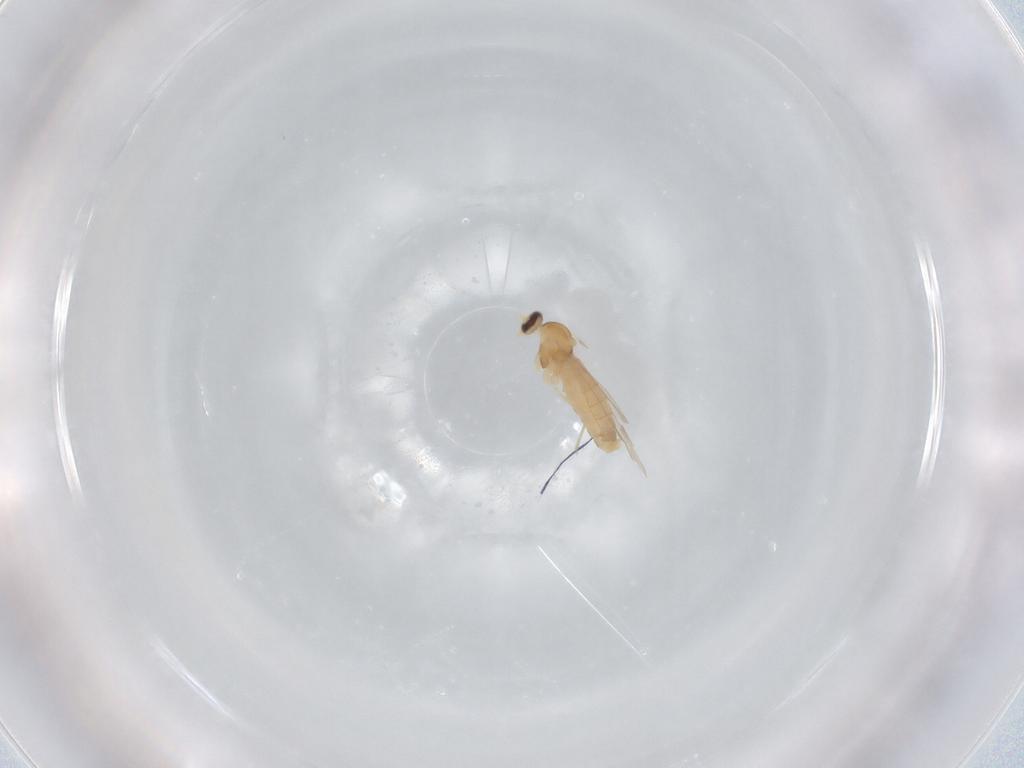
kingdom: Animalia
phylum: Arthropoda
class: Insecta
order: Diptera
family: Cecidomyiidae
